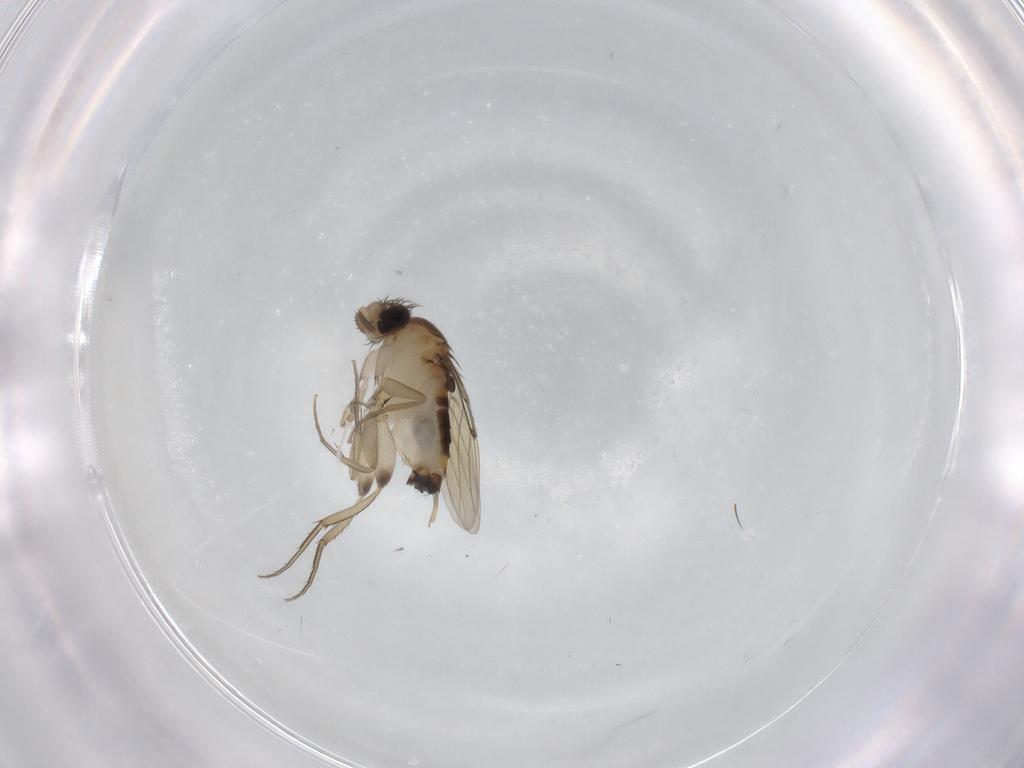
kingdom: Animalia
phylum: Arthropoda
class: Insecta
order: Diptera
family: Phoridae
